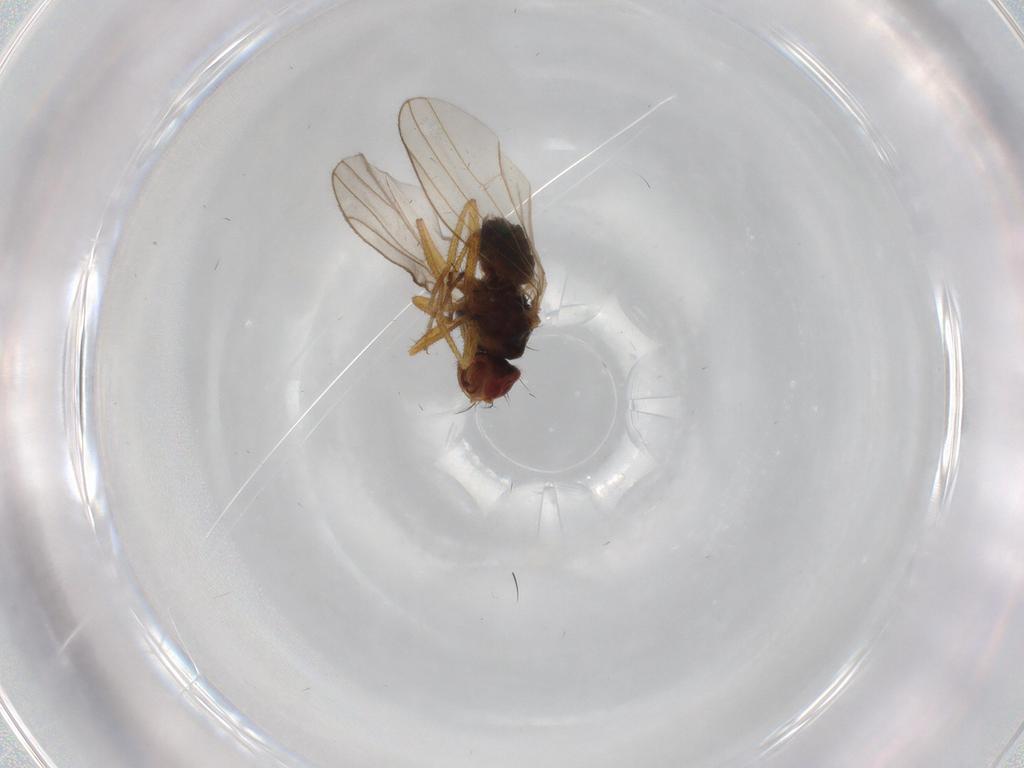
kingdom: Animalia
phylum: Arthropoda
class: Insecta
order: Diptera
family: Drosophilidae
